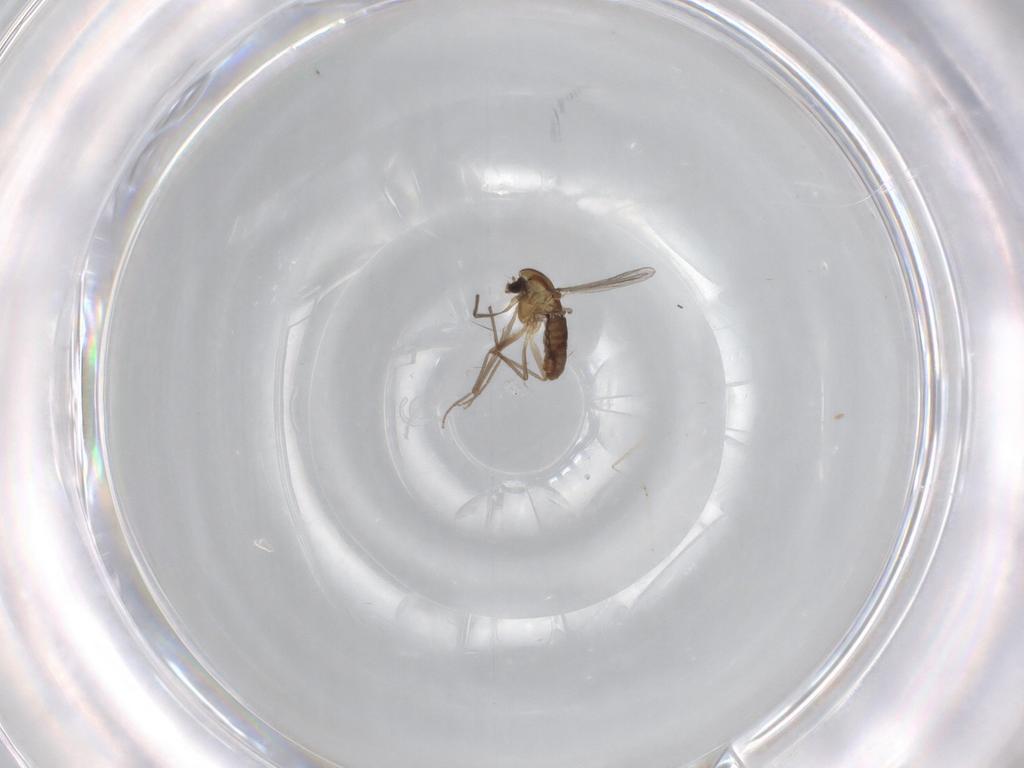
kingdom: Animalia
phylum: Arthropoda
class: Insecta
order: Diptera
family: Chironomidae
